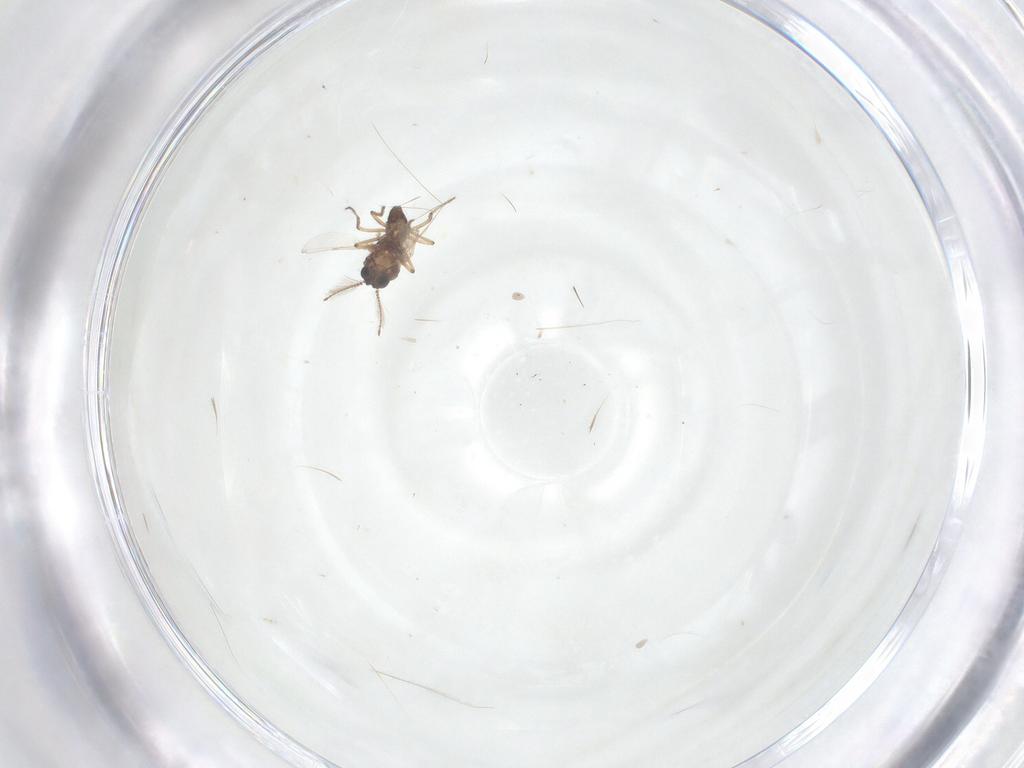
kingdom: Animalia
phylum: Arthropoda
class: Insecta
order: Diptera
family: Ceratopogonidae
